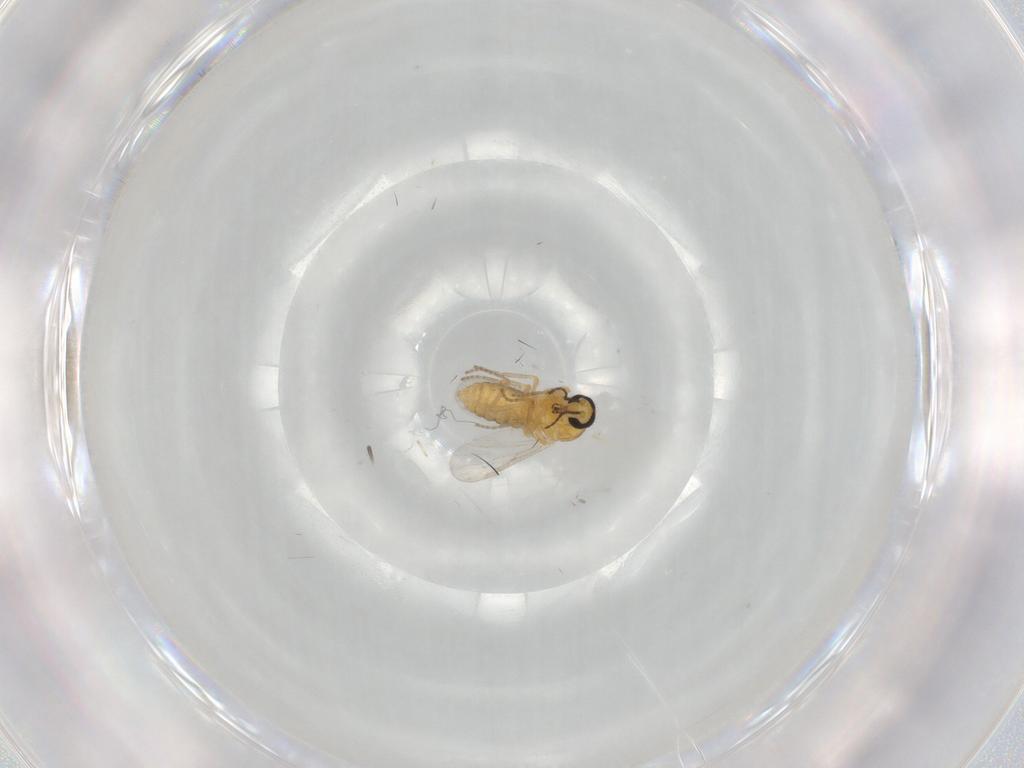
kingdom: Animalia
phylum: Arthropoda
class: Insecta
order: Diptera
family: Ceratopogonidae
